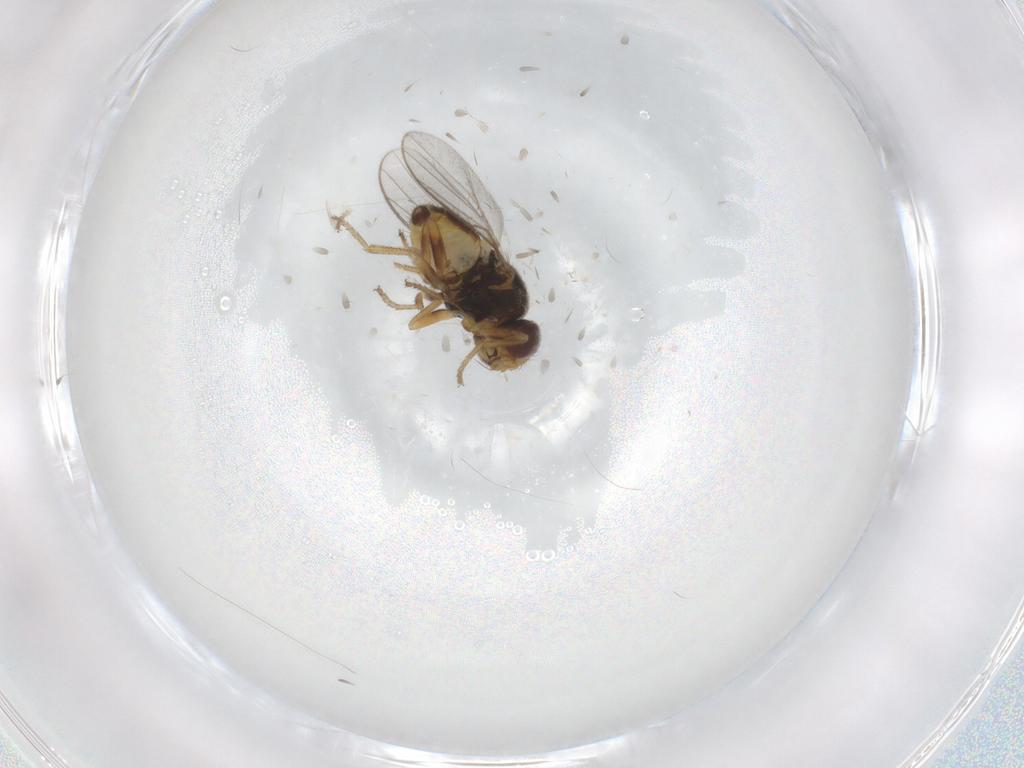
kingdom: Animalia
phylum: Arthropoda
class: Insecta
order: Diptera
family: Chloropidae
